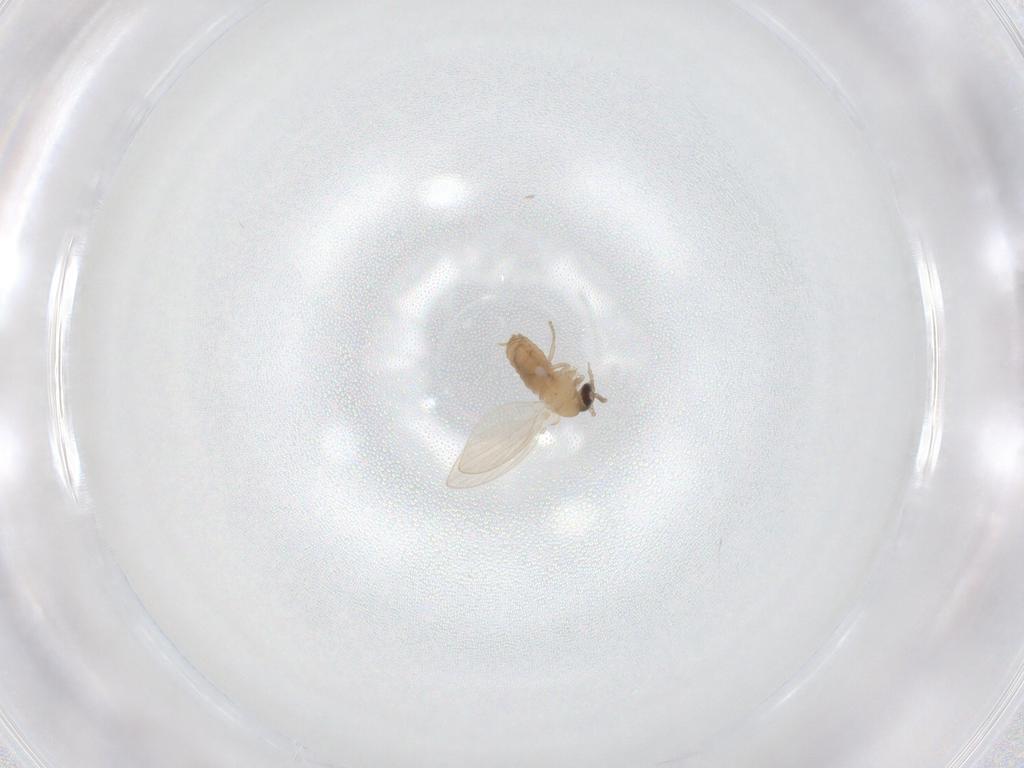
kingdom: Animalia
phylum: Arthropoda
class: Insecta
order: Diptera
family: Psychodidae
